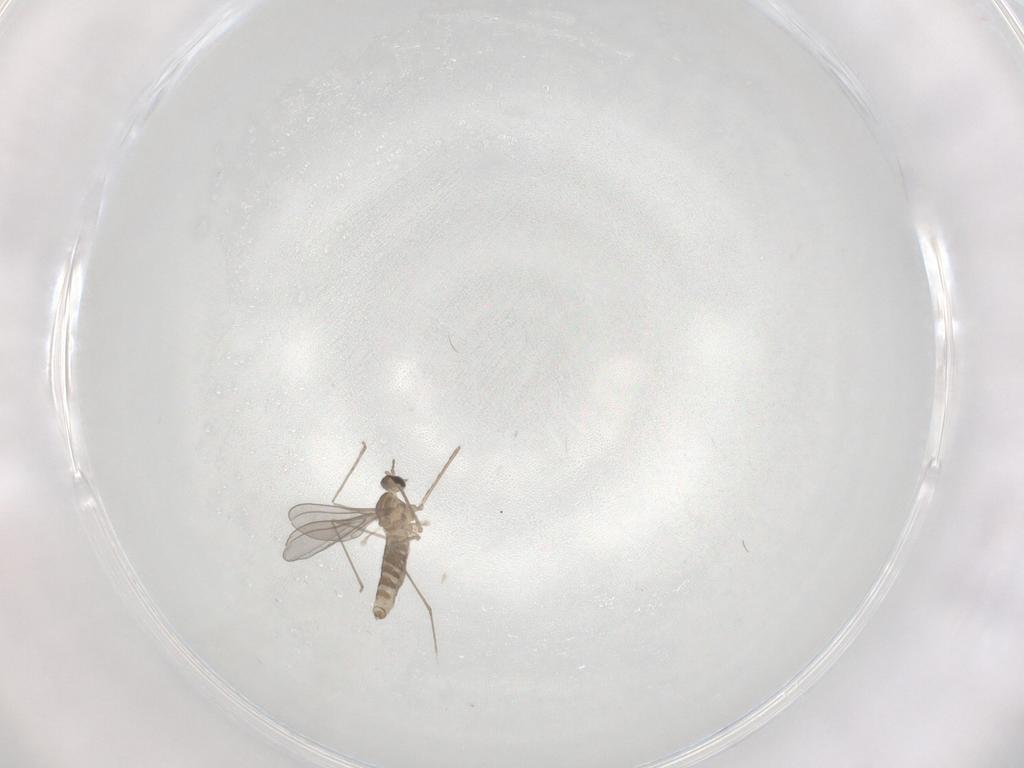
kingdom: Animalia
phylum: Arthropoda
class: Insecta
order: Diptera
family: Cecidomyiidae
